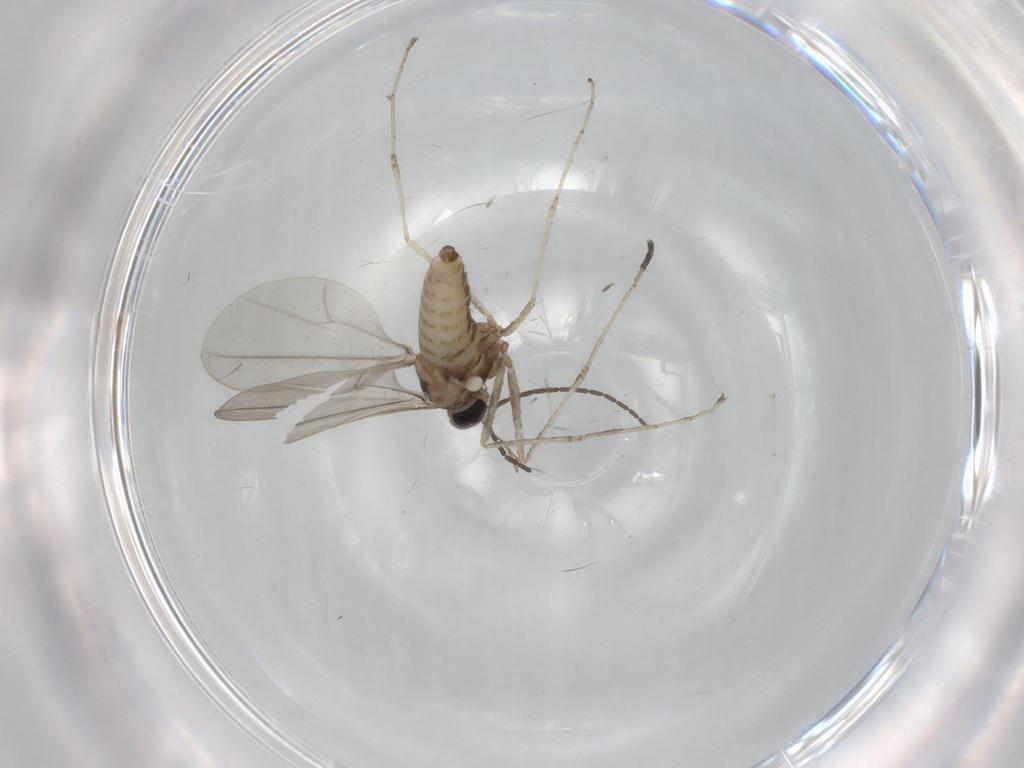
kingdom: Animalia
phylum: Arthropoda
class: Insecta
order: Diptera
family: Cecidomyiidae
